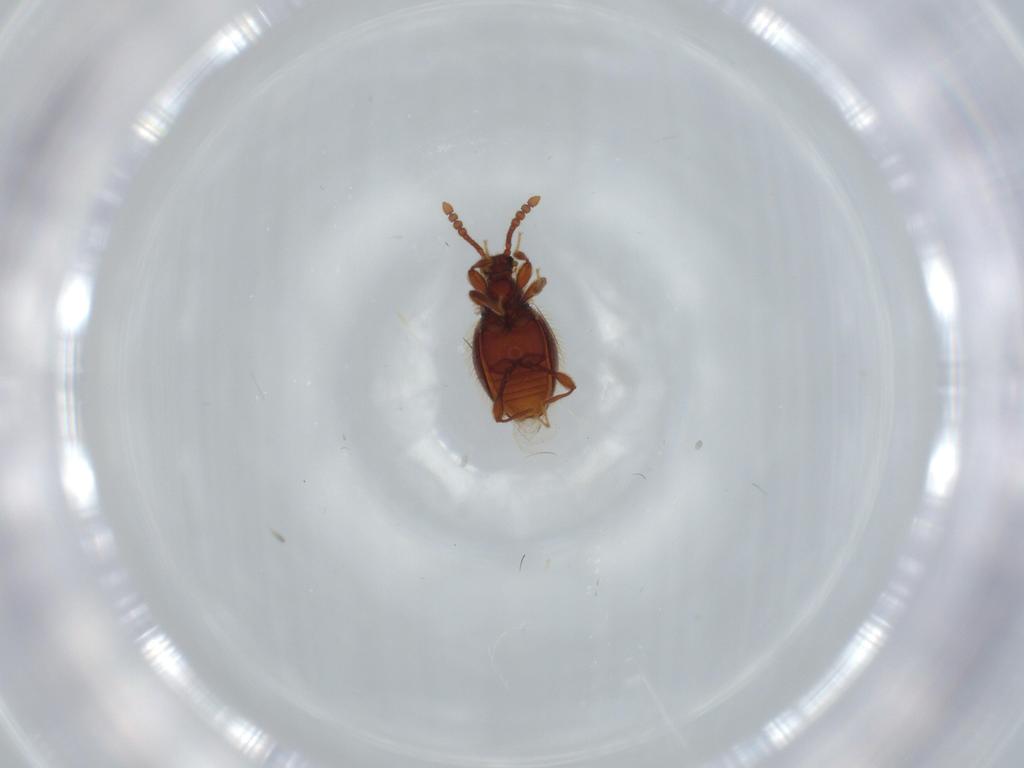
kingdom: Animalia
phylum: Arthropoda
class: Insecta
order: Coleoptera
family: Staphylinidae
